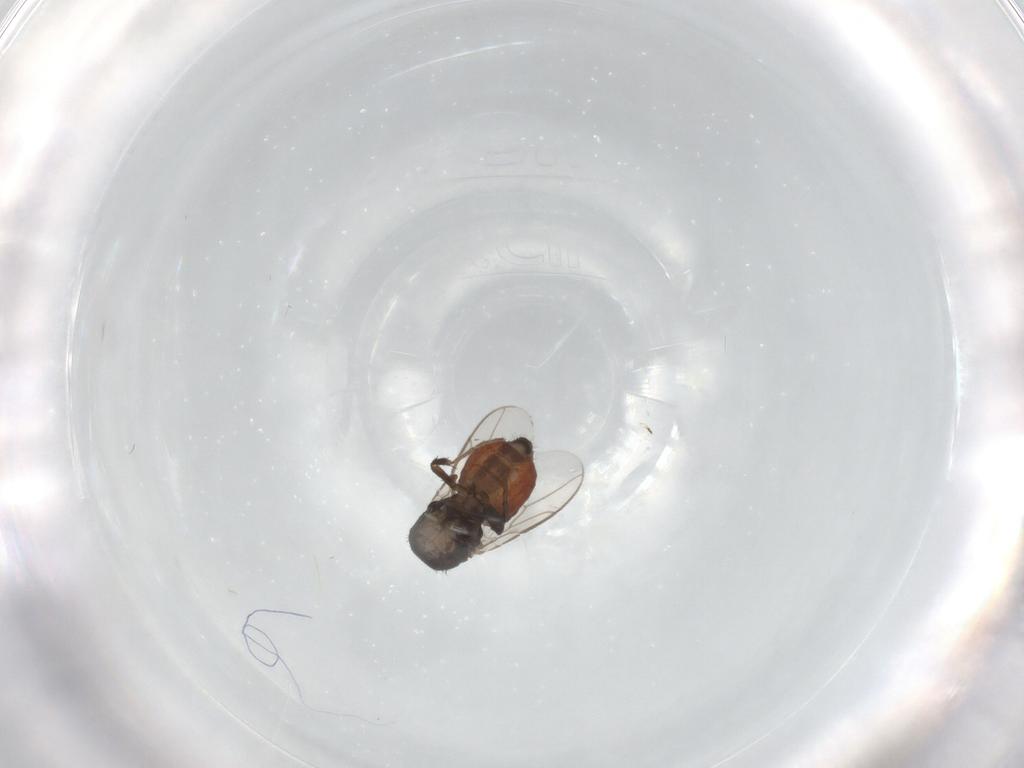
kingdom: Animalia
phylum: Arthropoda
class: Insecta
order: Diptera
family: Sphaeroceridae
